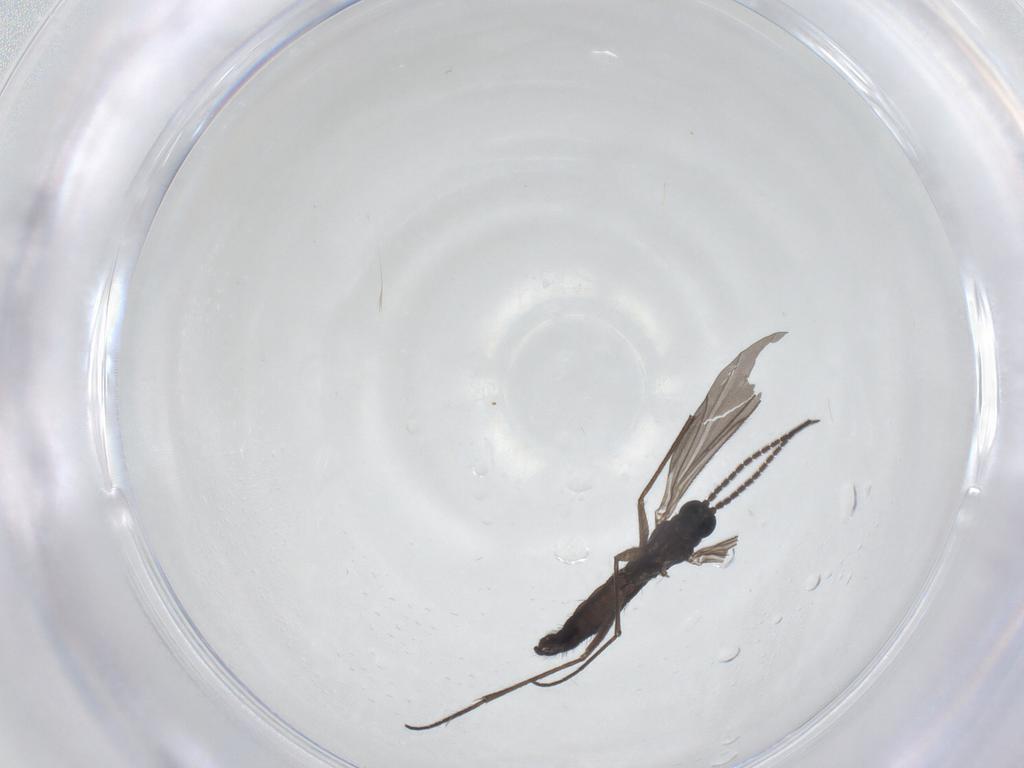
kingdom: Animalia
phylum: Arthropoda
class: Insecta
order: Diptera
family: Sciaridae
